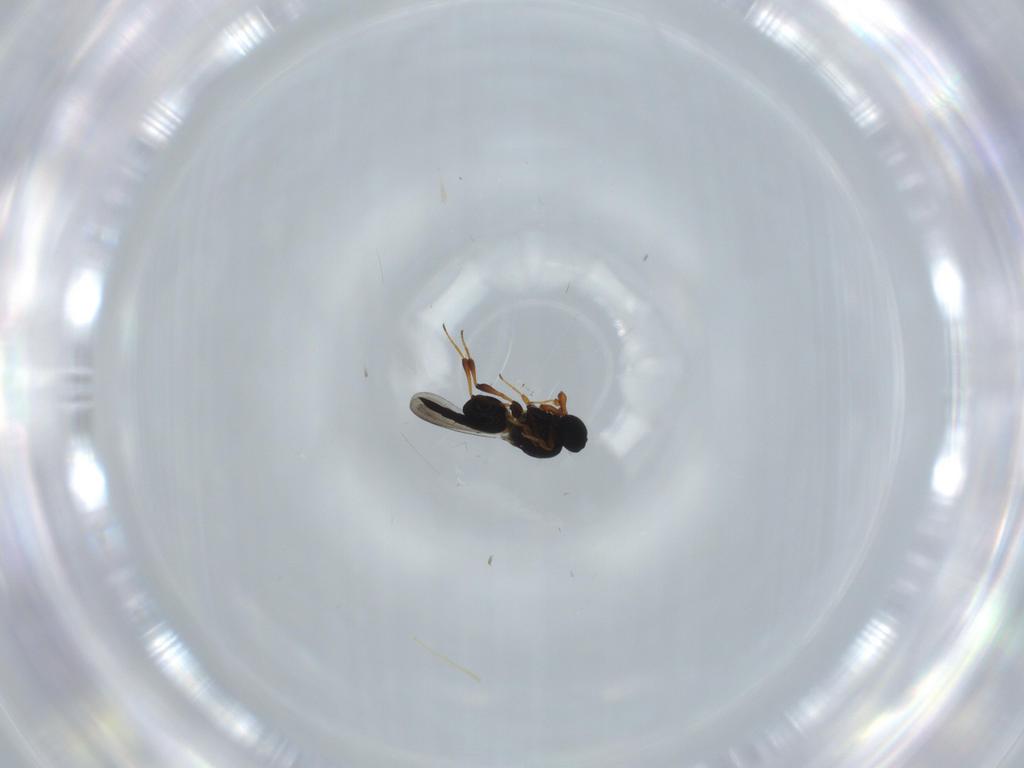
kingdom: Animalia
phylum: Arthropoda
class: Insecta
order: Hymenoptera
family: Platygastridae
